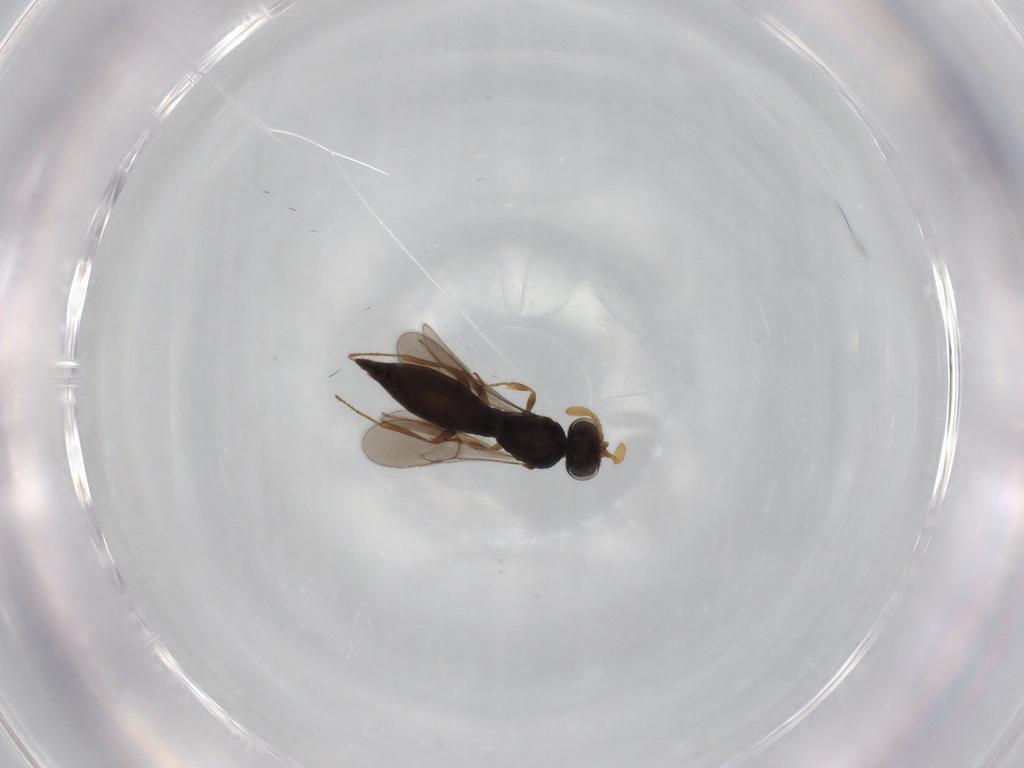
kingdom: Animalia
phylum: Arthropoda
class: Insecta
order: Hymenoptera
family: Scelionidae
